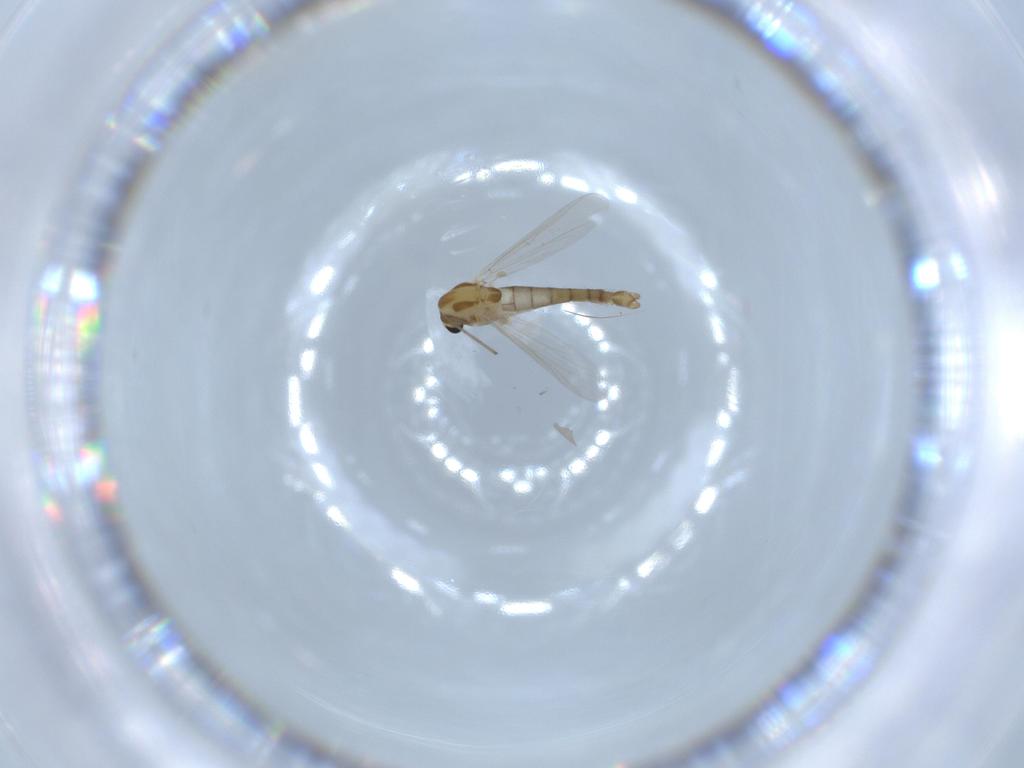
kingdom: Animalia
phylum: Arthropoda
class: Insecta
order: Diptera
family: Chironomidae
